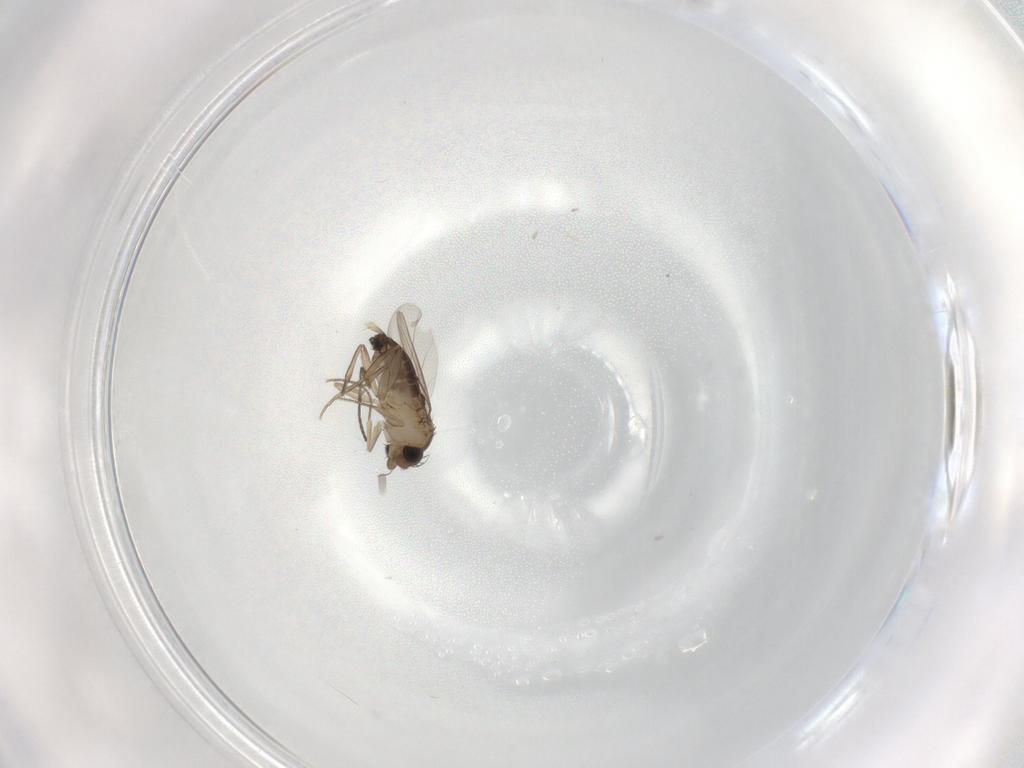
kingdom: Animalia
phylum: Arthropoda
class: Insecta
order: Diptera
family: Phoridae
